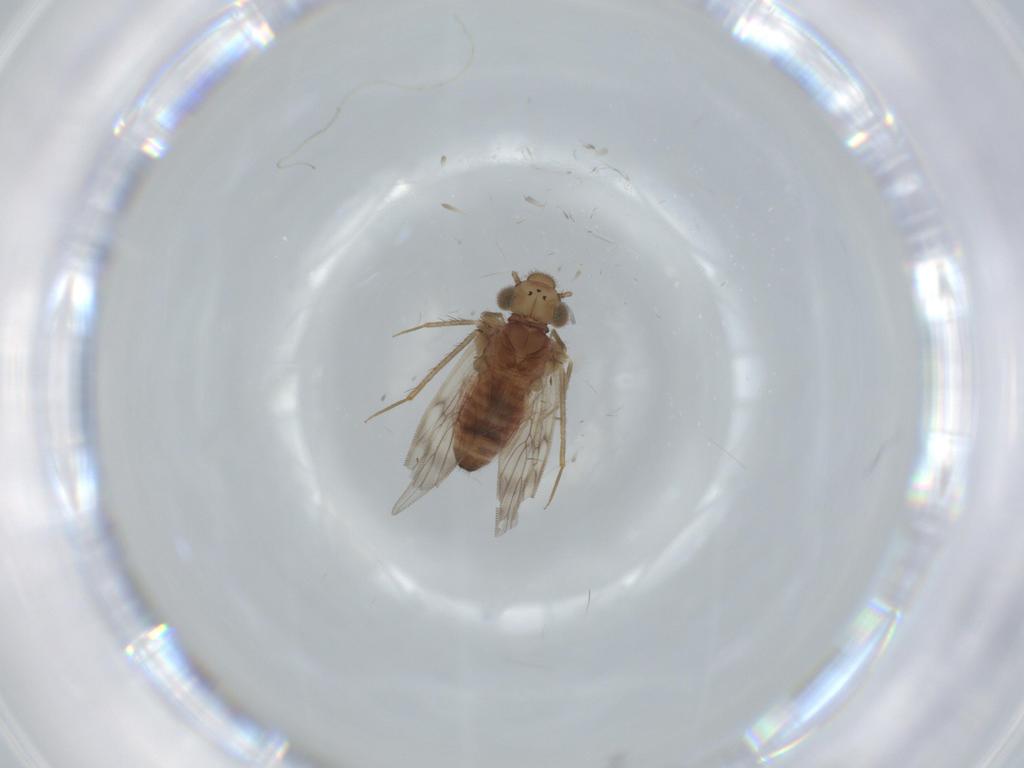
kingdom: Animalia
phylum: Arthropoda
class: Insecta
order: Psocodea
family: Lepidopsocidae
